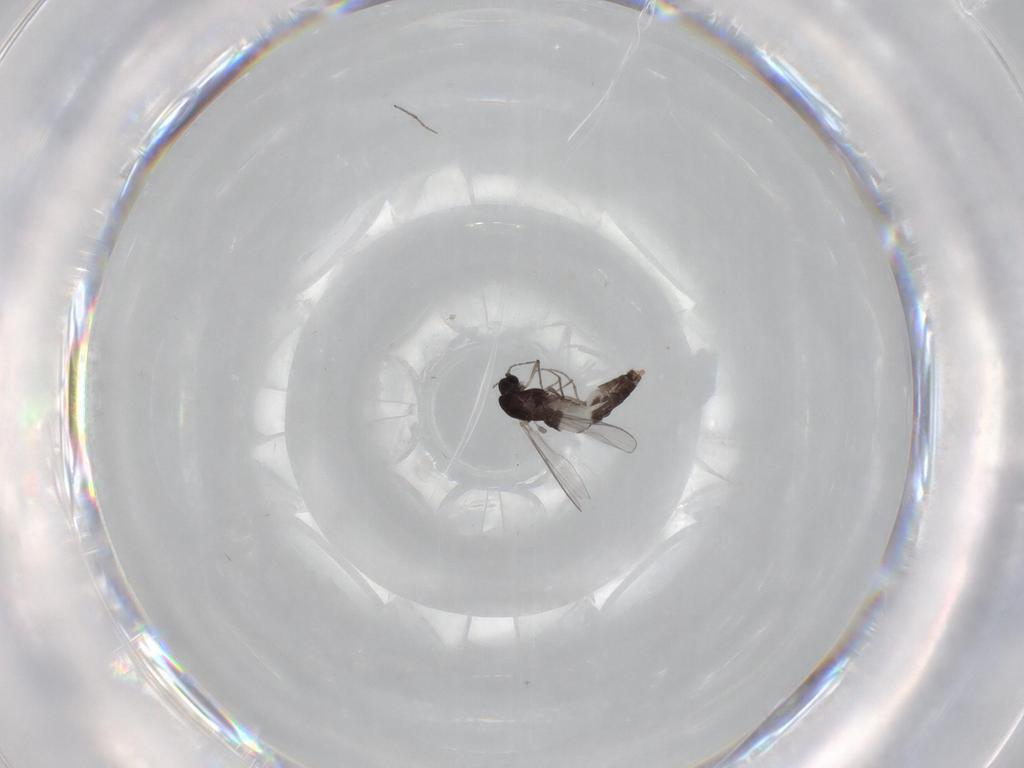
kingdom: Animalia
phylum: Arthropoda
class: Insecta
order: Diptera
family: Chironomidae
